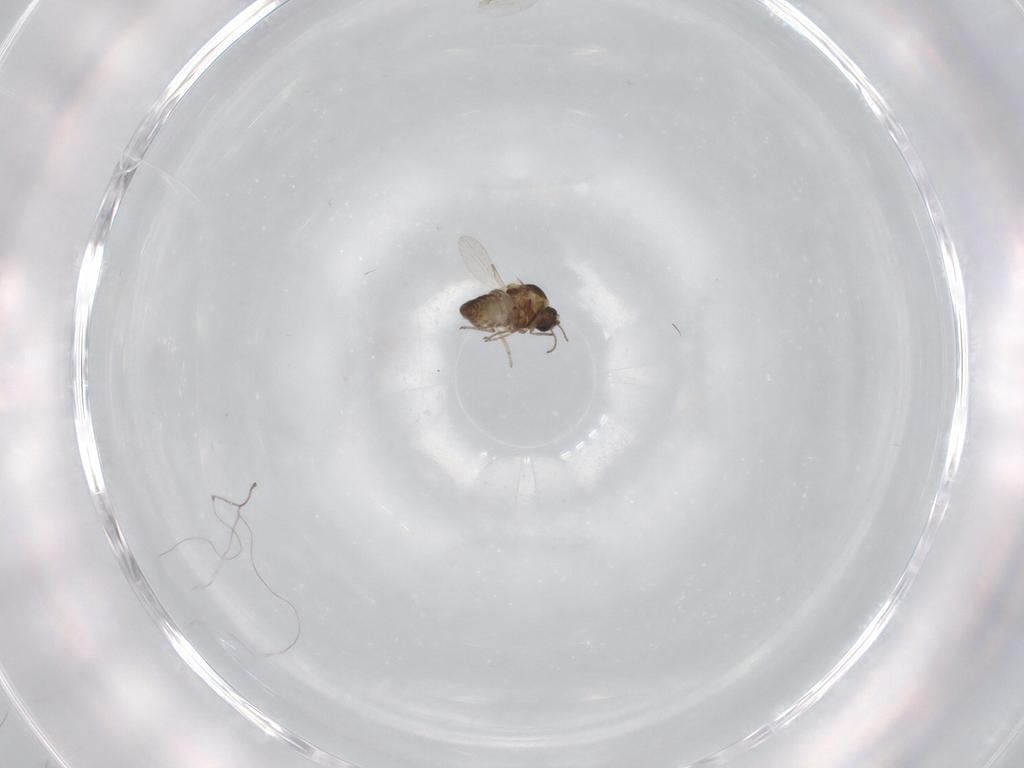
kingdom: Animalia
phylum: Arthropoda
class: Insecta
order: Diptera
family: Ceratopogonidae
